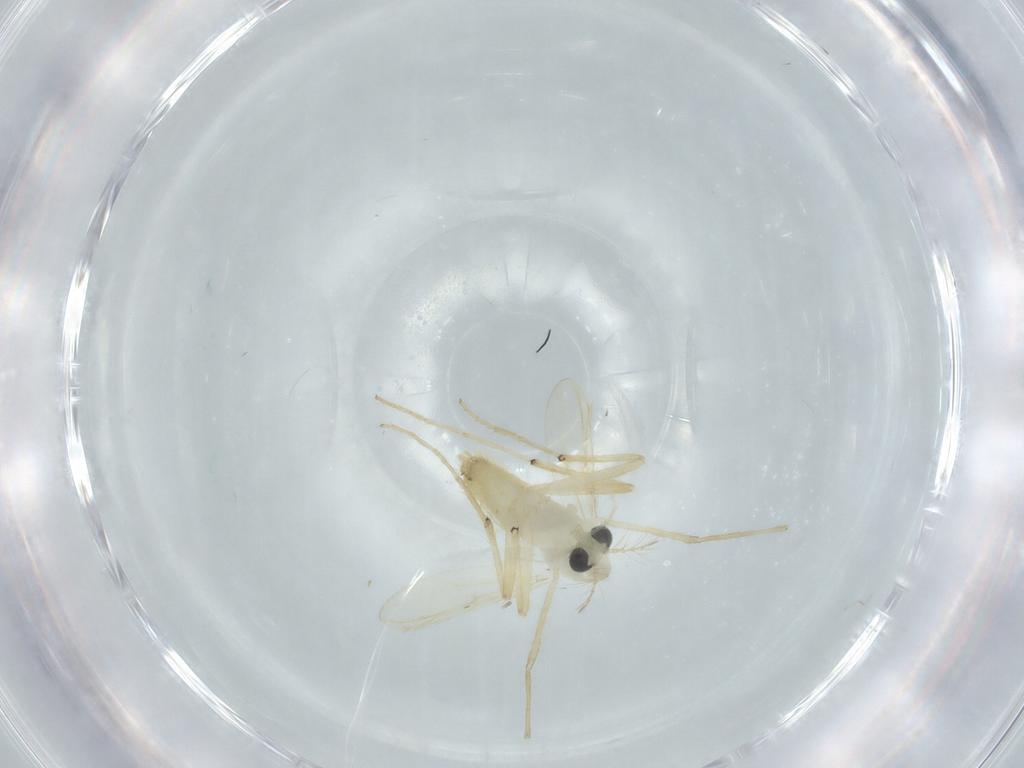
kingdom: Animalia
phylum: Arthropoda
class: Insecta
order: Diptera
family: Chironomidae
